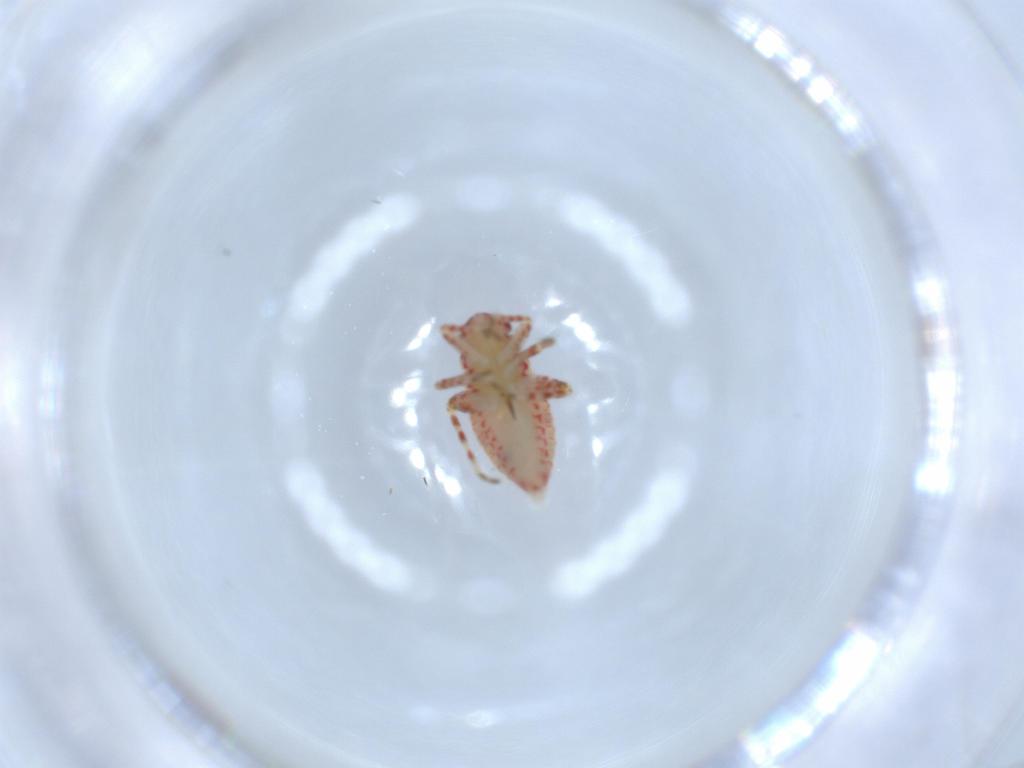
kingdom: Animalia
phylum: Arthropoda
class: Insecta
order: Hemiptera
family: Miridae
